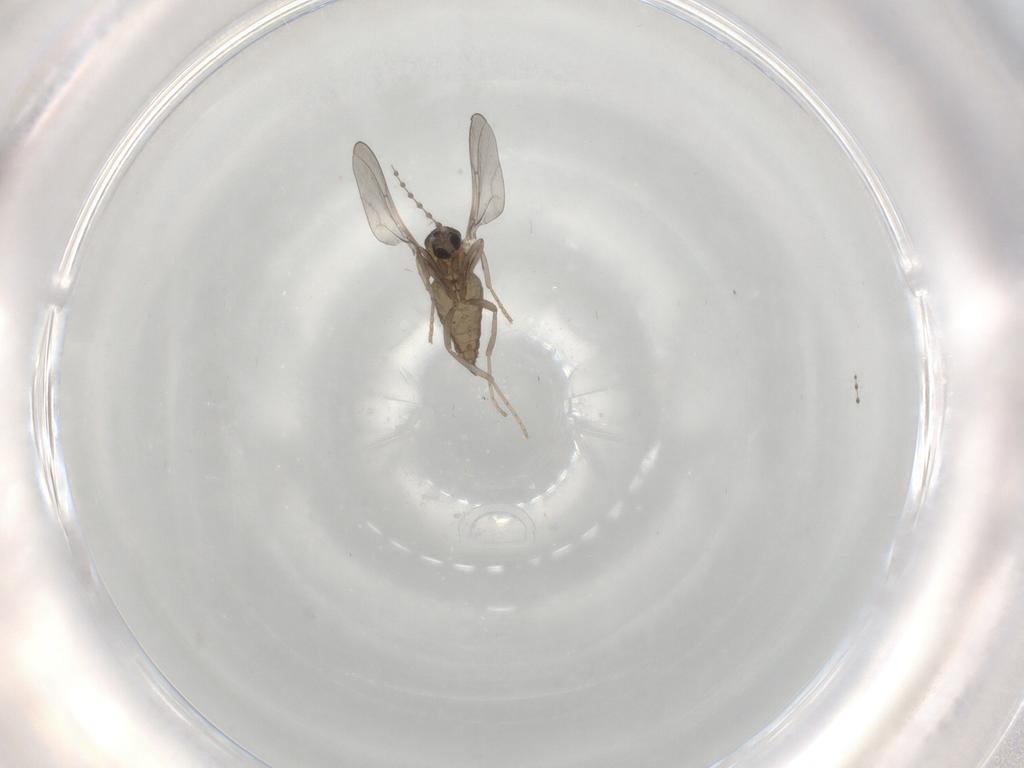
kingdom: Animalia
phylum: Arthropoda
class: Insecta
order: Diptera
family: Cecidomyiidae
